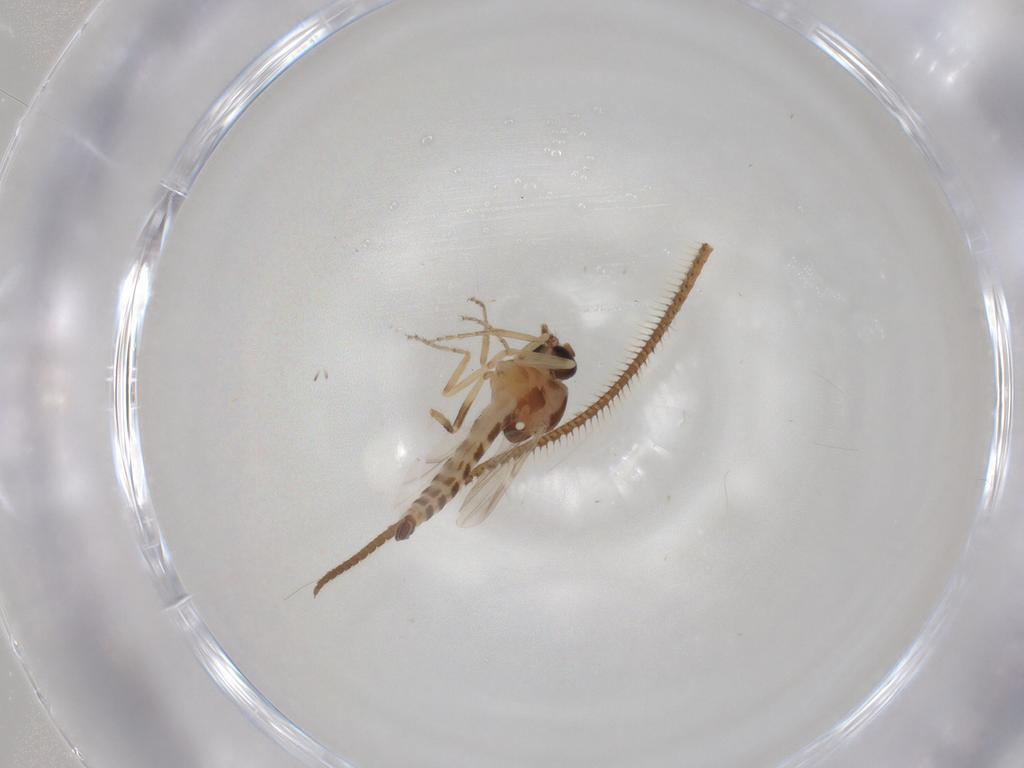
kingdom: Animalia
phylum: Arthropoda
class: Insecta
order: Diptera
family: Ceratopogonidae
